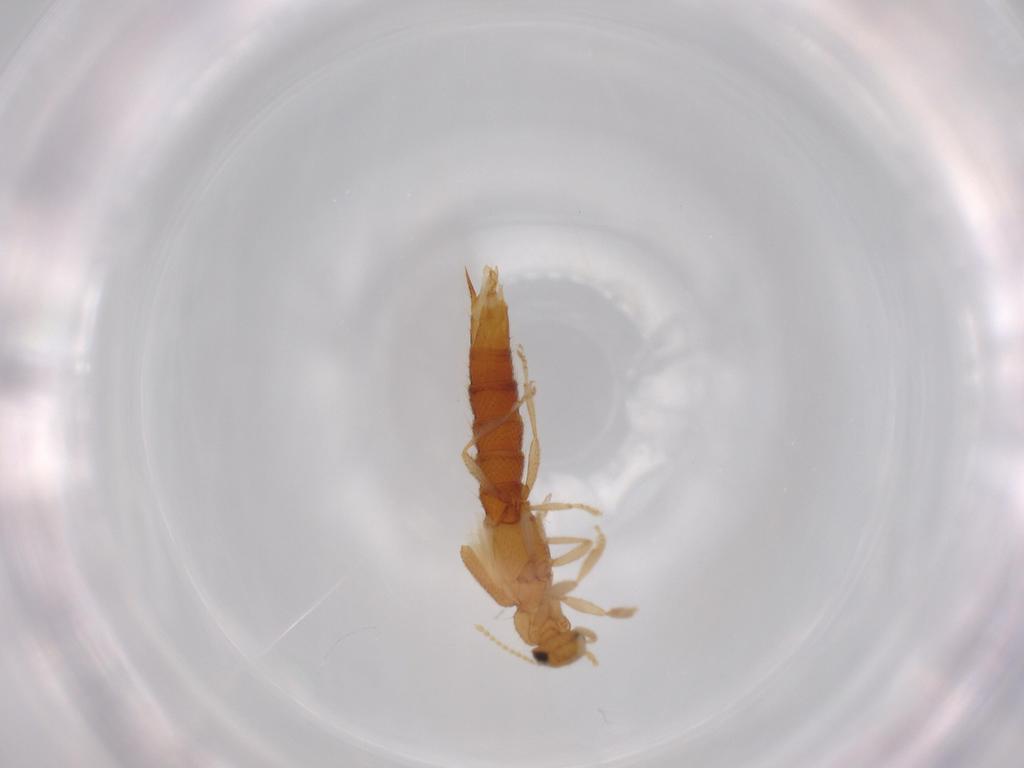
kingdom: Animalia
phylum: Arthropoda
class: Insecta
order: Coleoptera
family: Staphylinidae
